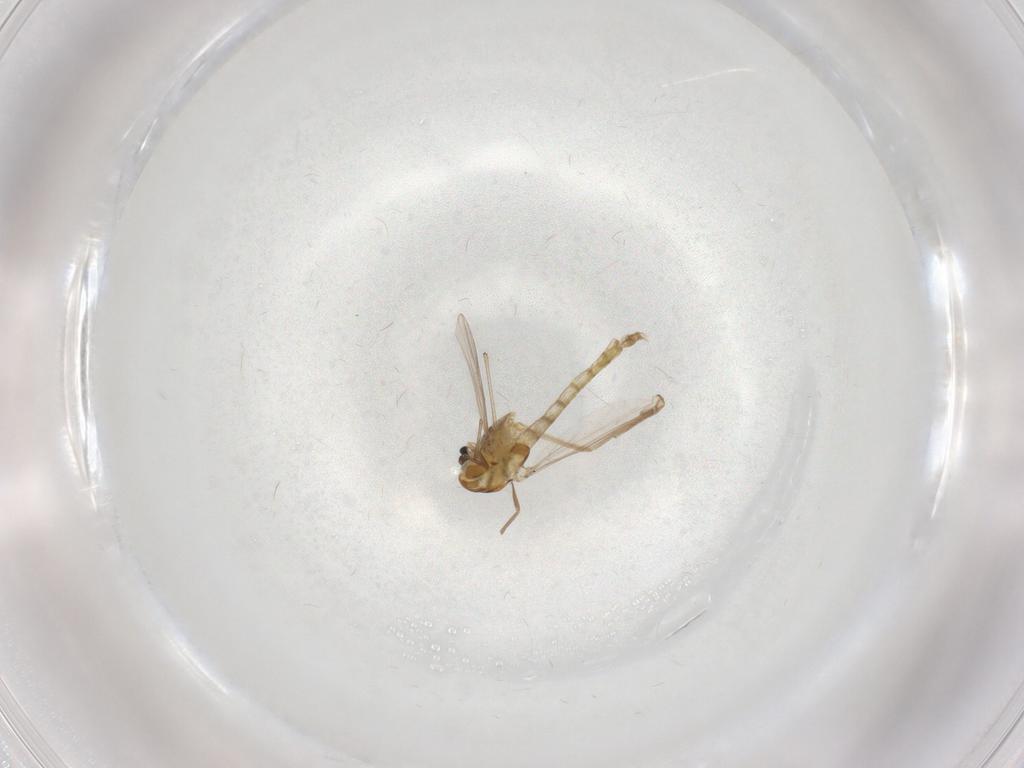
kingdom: Animalia
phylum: Arthropoda
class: Insecta
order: Diptera
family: Chironomidae
